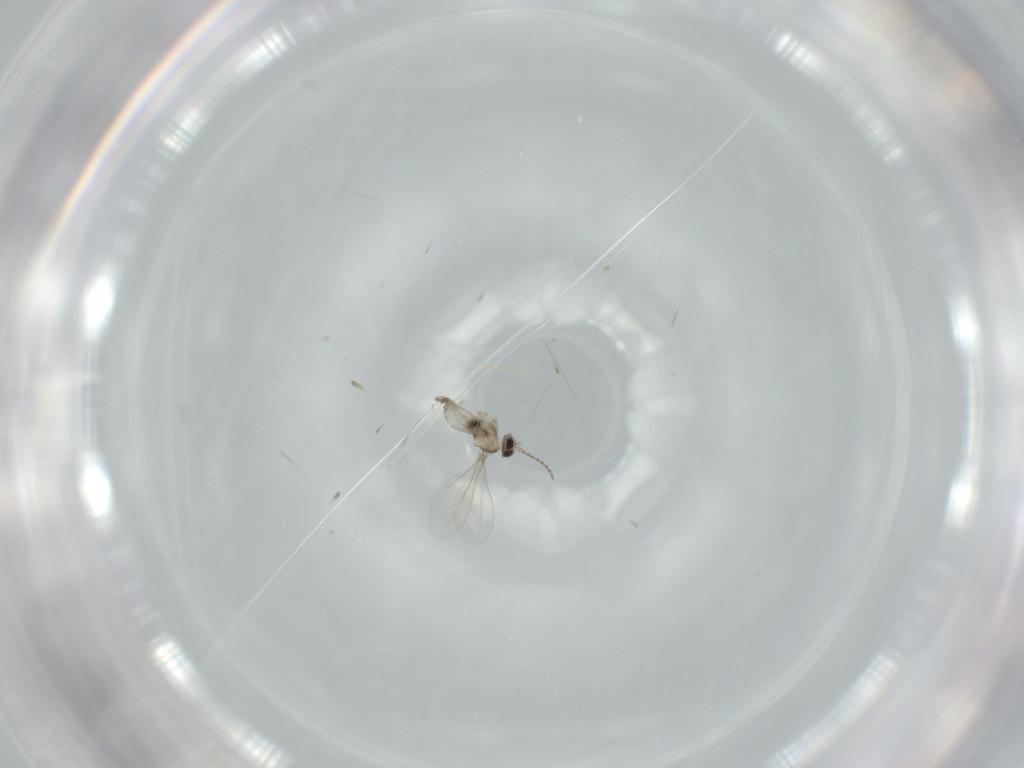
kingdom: Animalia
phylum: Arthropoda
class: Insecta
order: Diptera
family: Cecidomyiidae
